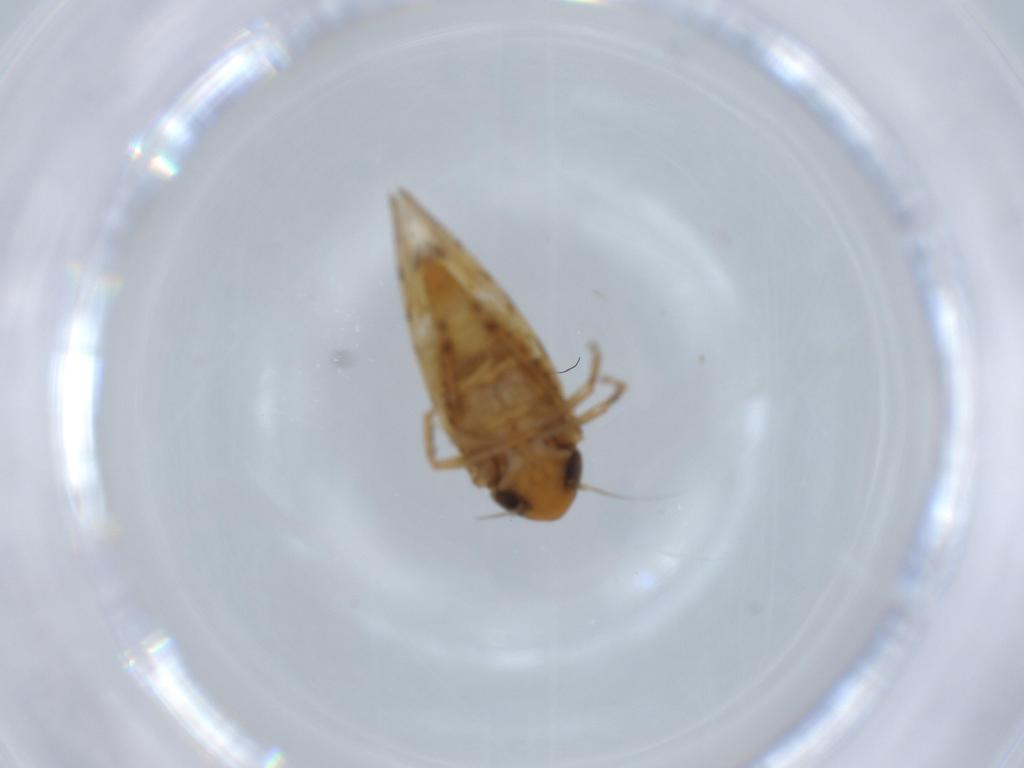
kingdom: Animalia
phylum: Arthropoda
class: Insecta
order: Hemiptera
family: Cicadellidae
